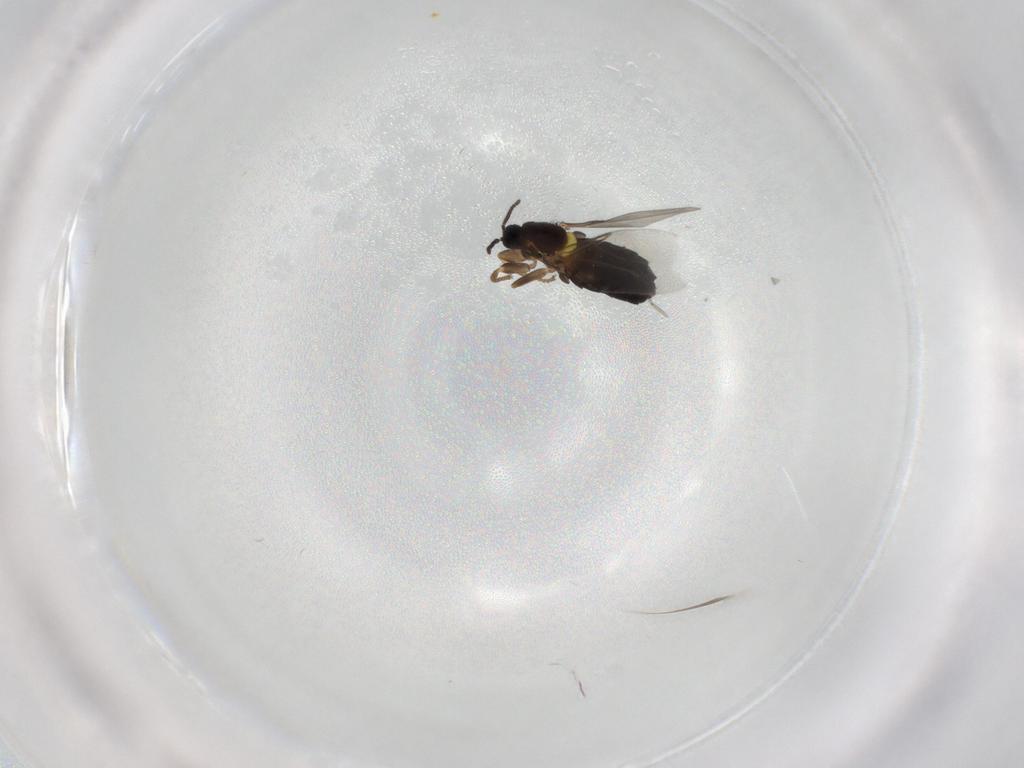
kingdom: Animalia
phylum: Arthropoda
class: Insecta
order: Diptera
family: Scatopsidae
